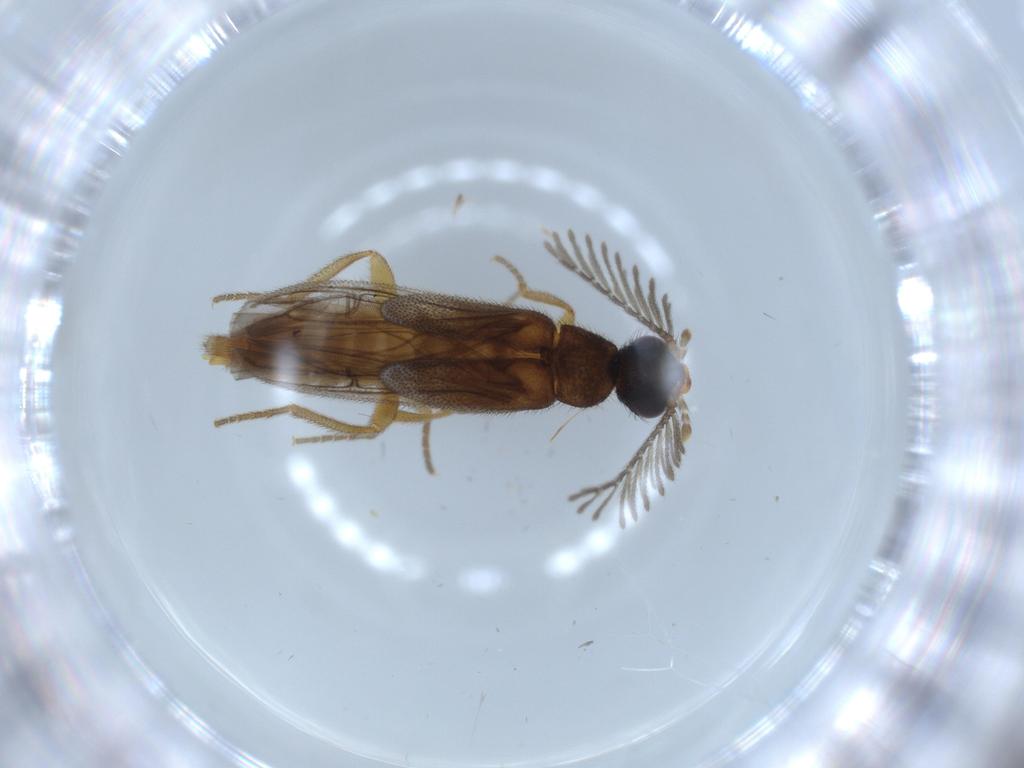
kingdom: Animalia
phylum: Arthropoda
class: Insecta
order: Coleoptera
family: Chrysomelidae
